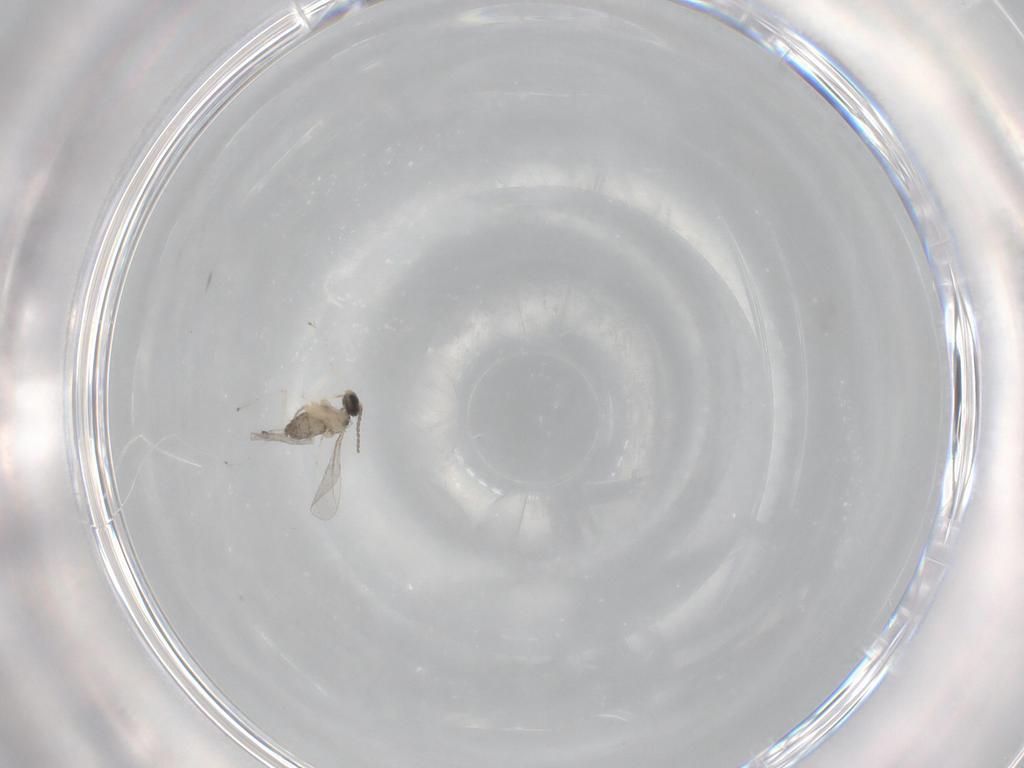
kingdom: Animalia
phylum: Arthropoda
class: Insecta
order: Diptera
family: Cecidomyiidae
